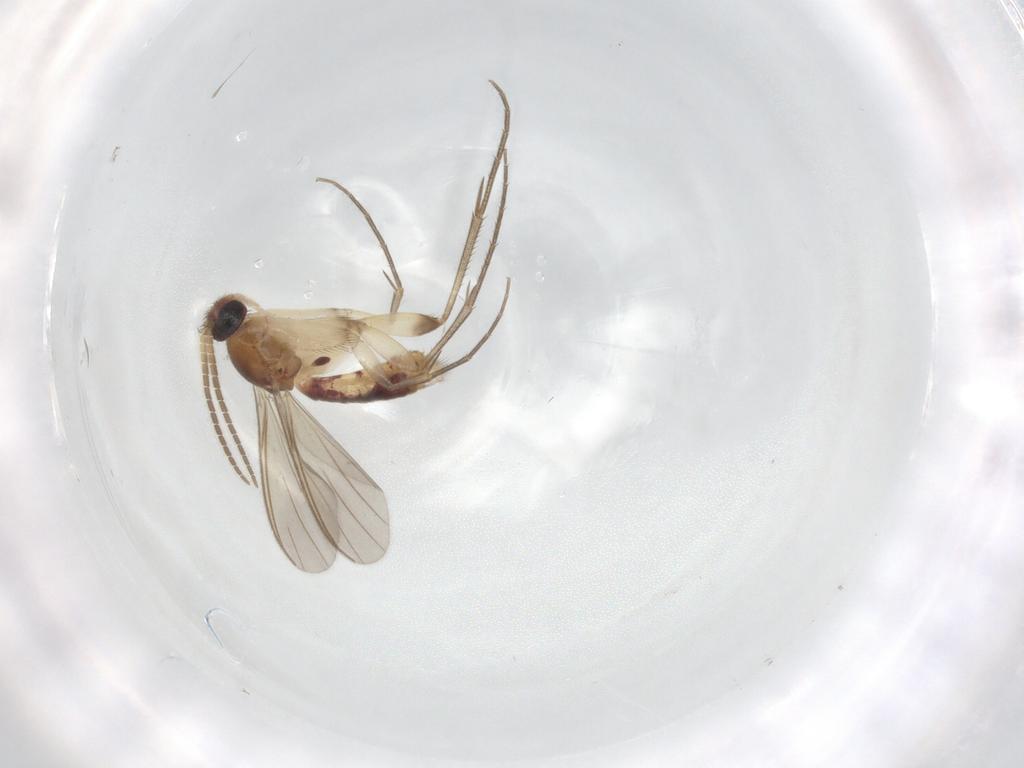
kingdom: Animalia
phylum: Arthropoda
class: Insecta
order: Diptera
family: Mycetophilidae
